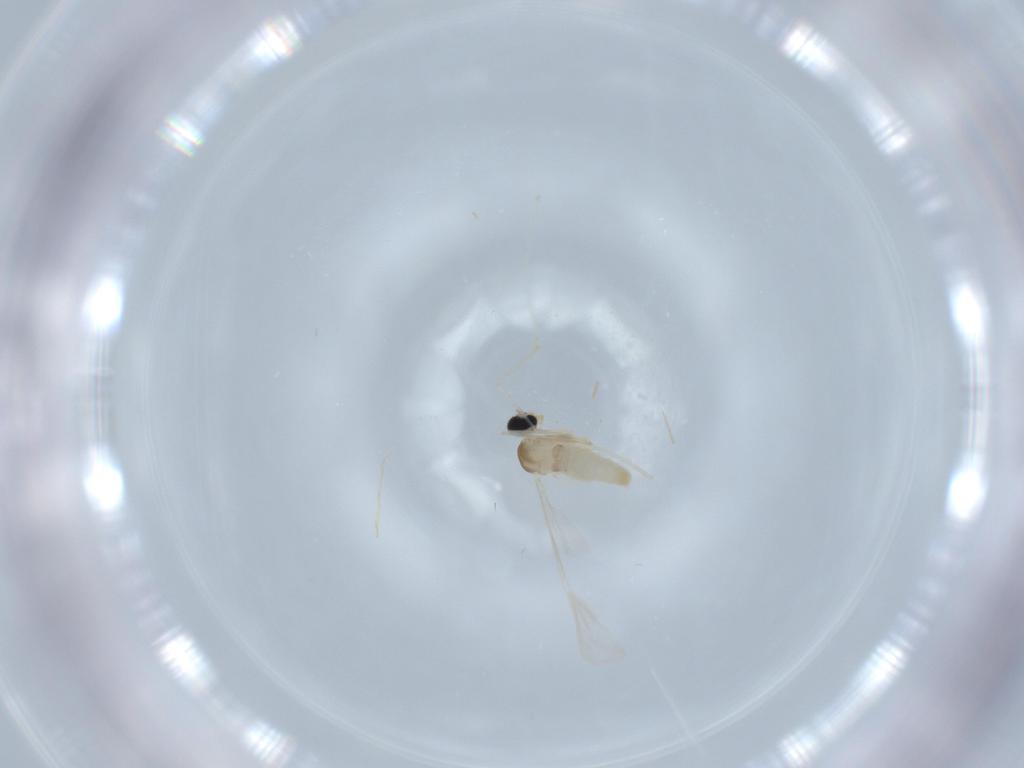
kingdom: Animalia
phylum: Arthropoda
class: Insecta
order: Diptera
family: Cecidomyiidae
